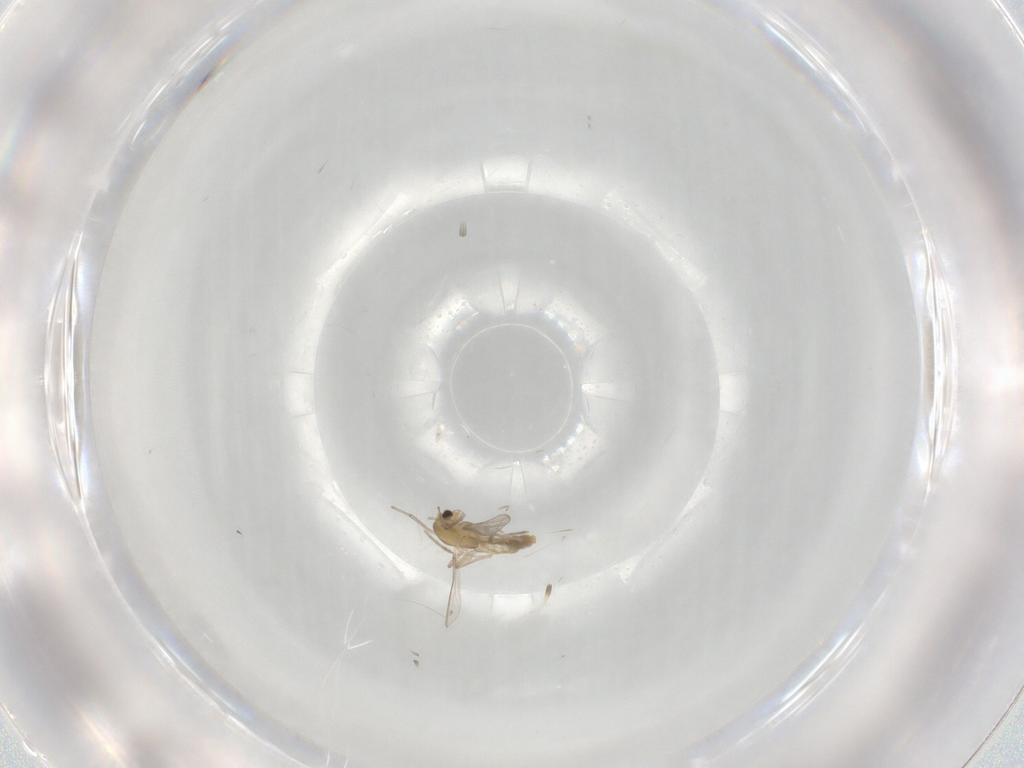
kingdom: Animalia
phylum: Arthropoda
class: Insecta
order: Diptera
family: Chironomidae
